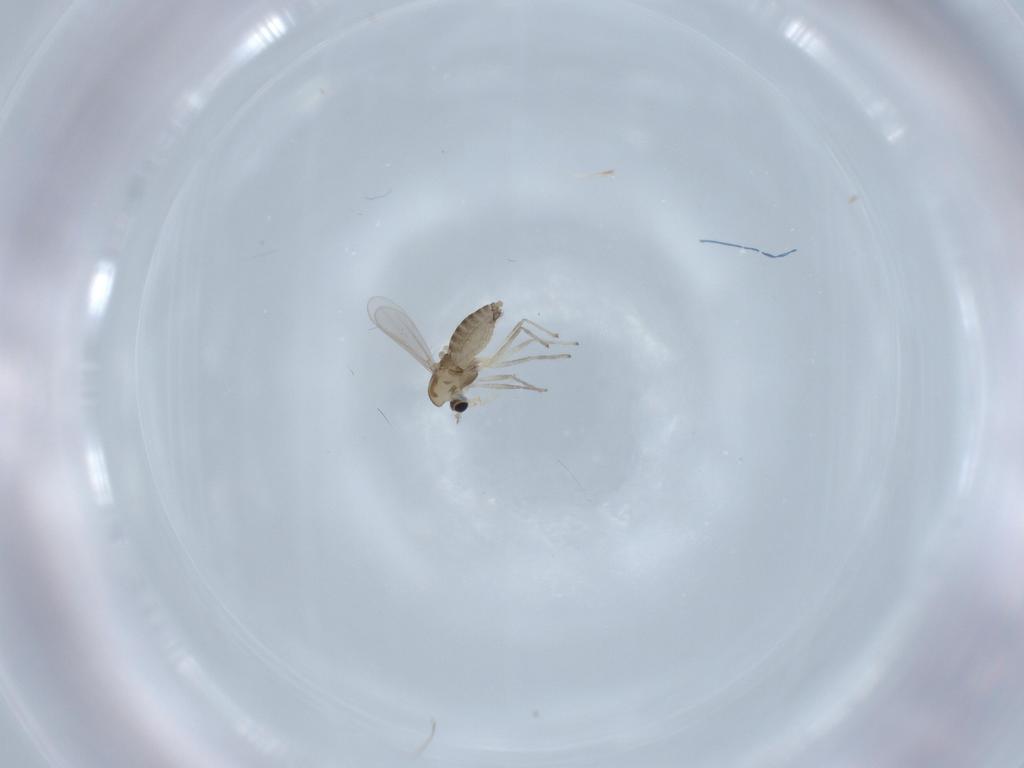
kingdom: Animalia
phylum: Arthropoda
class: Insecta
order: Diptera
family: Chironomidae
